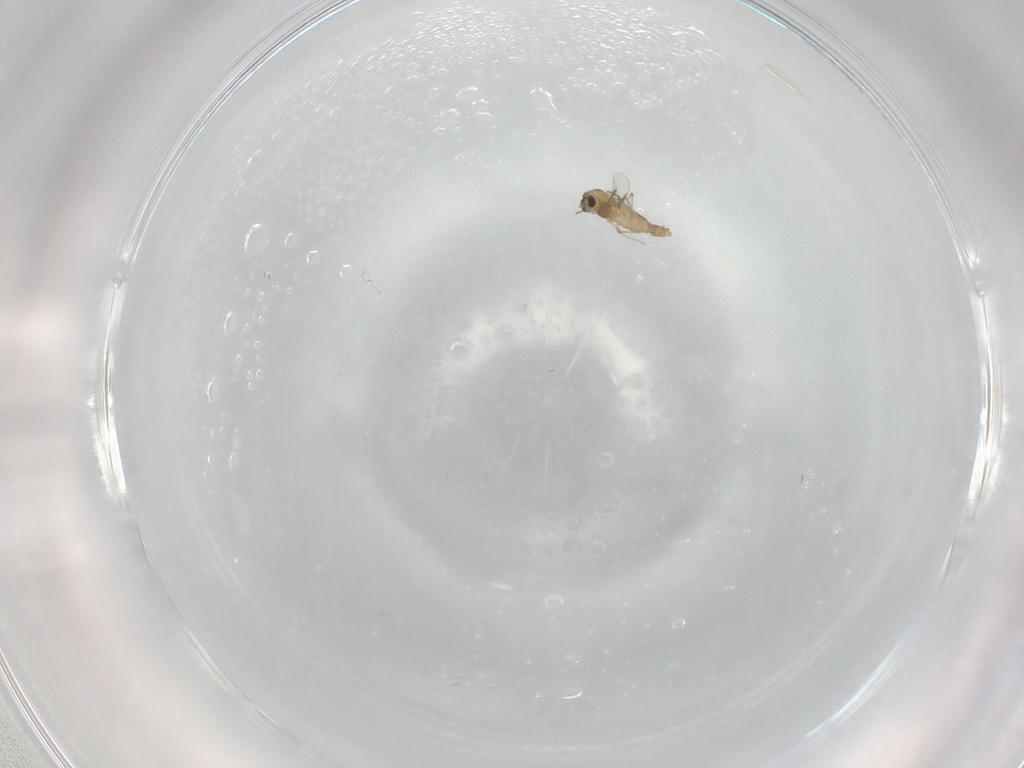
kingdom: Animalia
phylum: Arthropoda
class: Insecta
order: Diptera
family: Chironomidae
